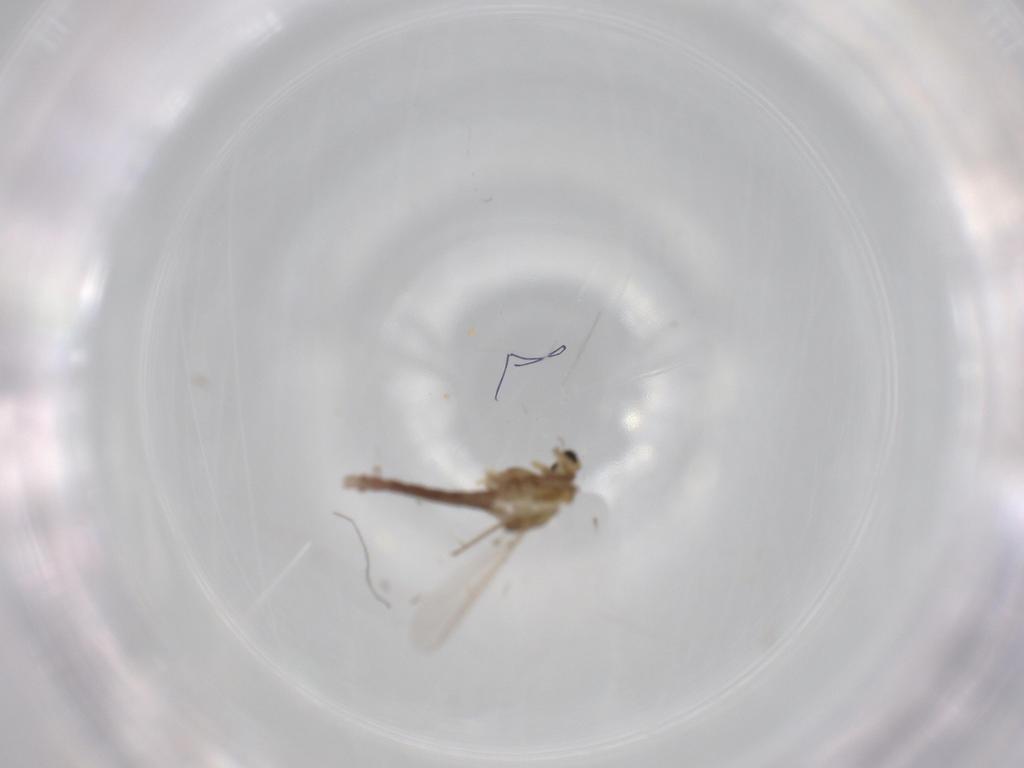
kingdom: Animalia
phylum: Arthropoda
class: Insecta
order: Diptera
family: Chironomidae
